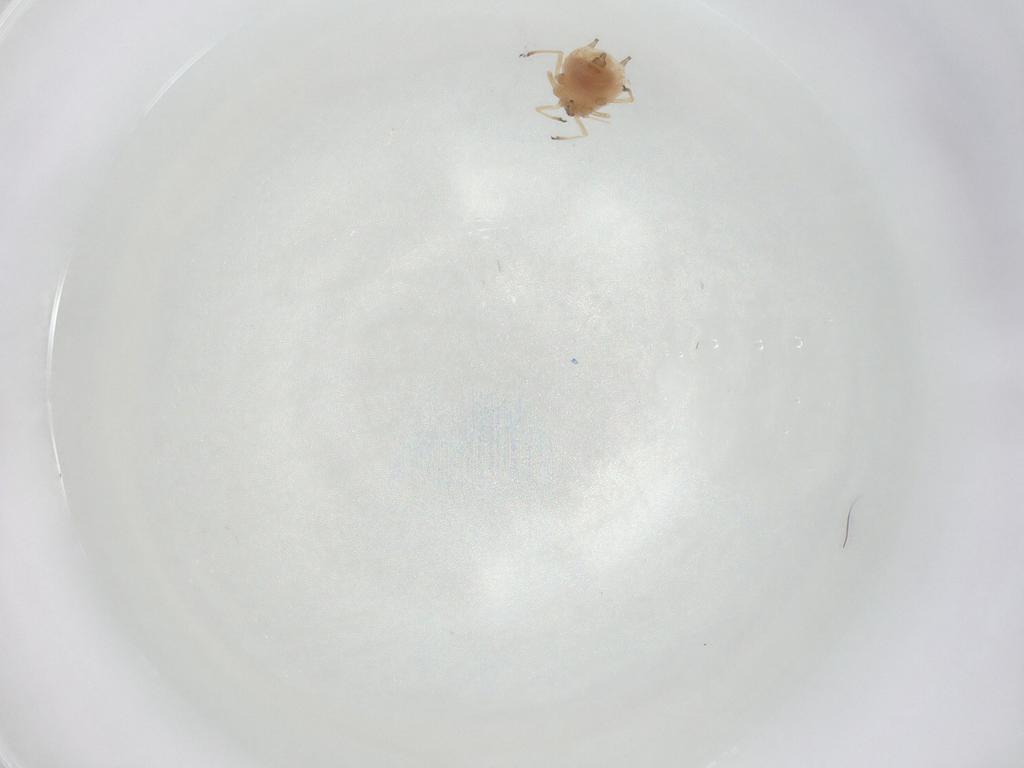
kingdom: Animalia
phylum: Arthropoda
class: Insecta
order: Hemiptera
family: Aphididae
